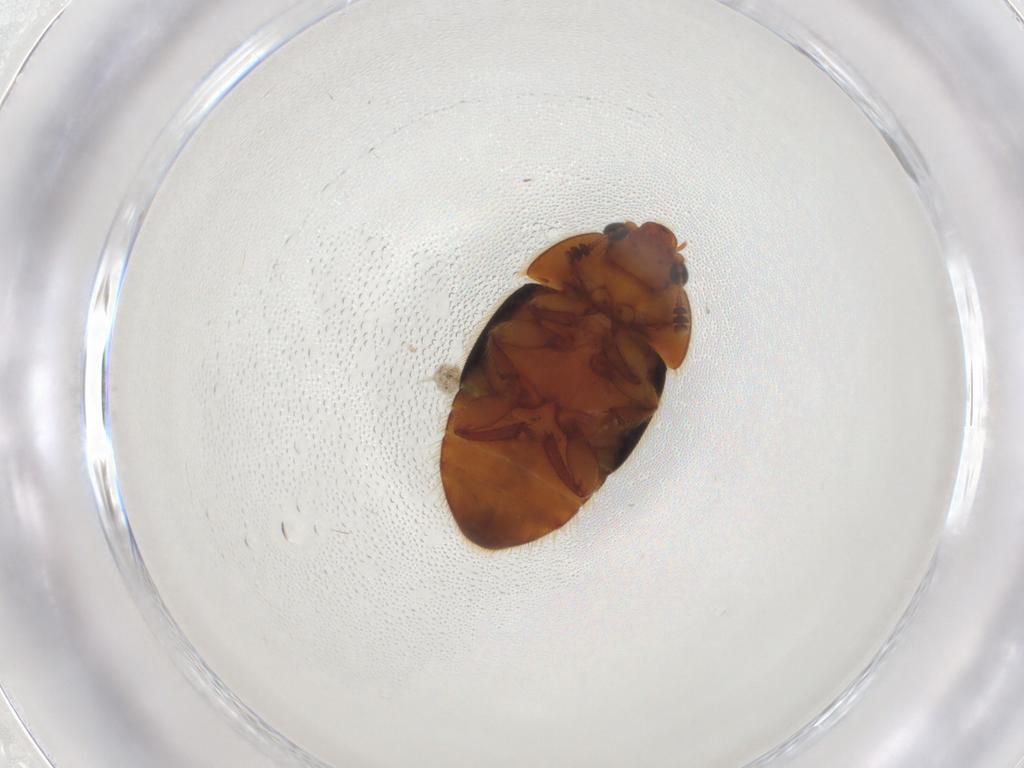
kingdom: Animalia
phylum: Arthropoda
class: Insecta
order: Coleoptera
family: Nitidulidae
